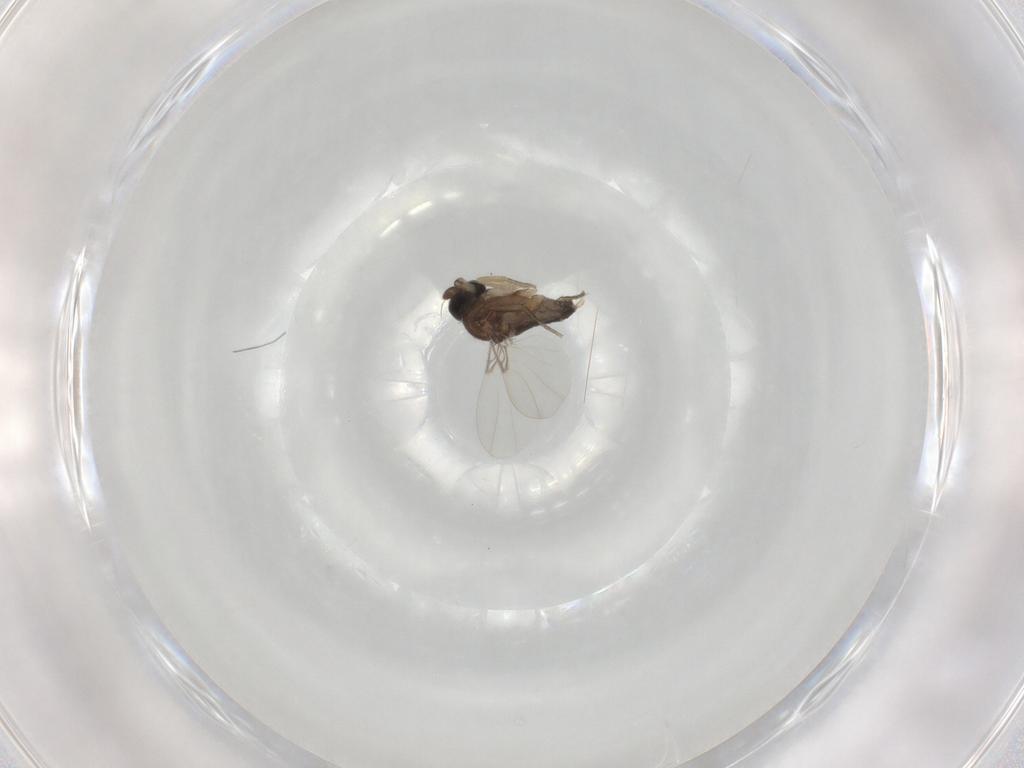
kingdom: Animalia
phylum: Arthropoda
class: Insecta
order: Diptera
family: Phoridae
